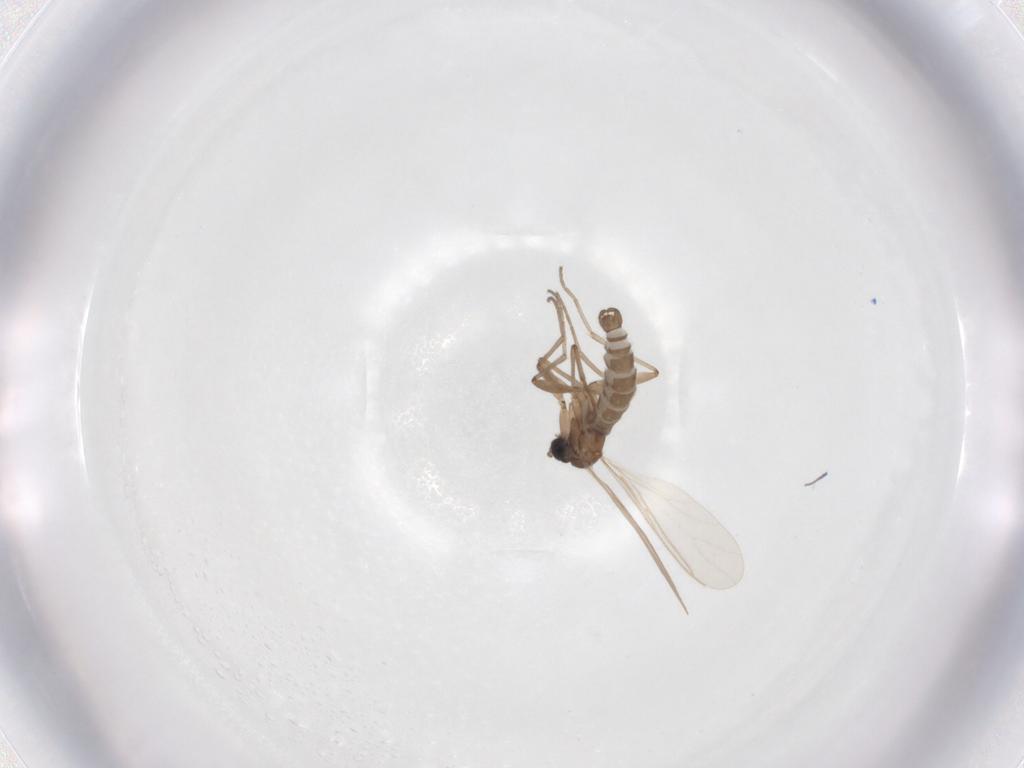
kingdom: Animalia
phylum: Arthropoda
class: Insecta
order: Diptera
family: Sciaridae
